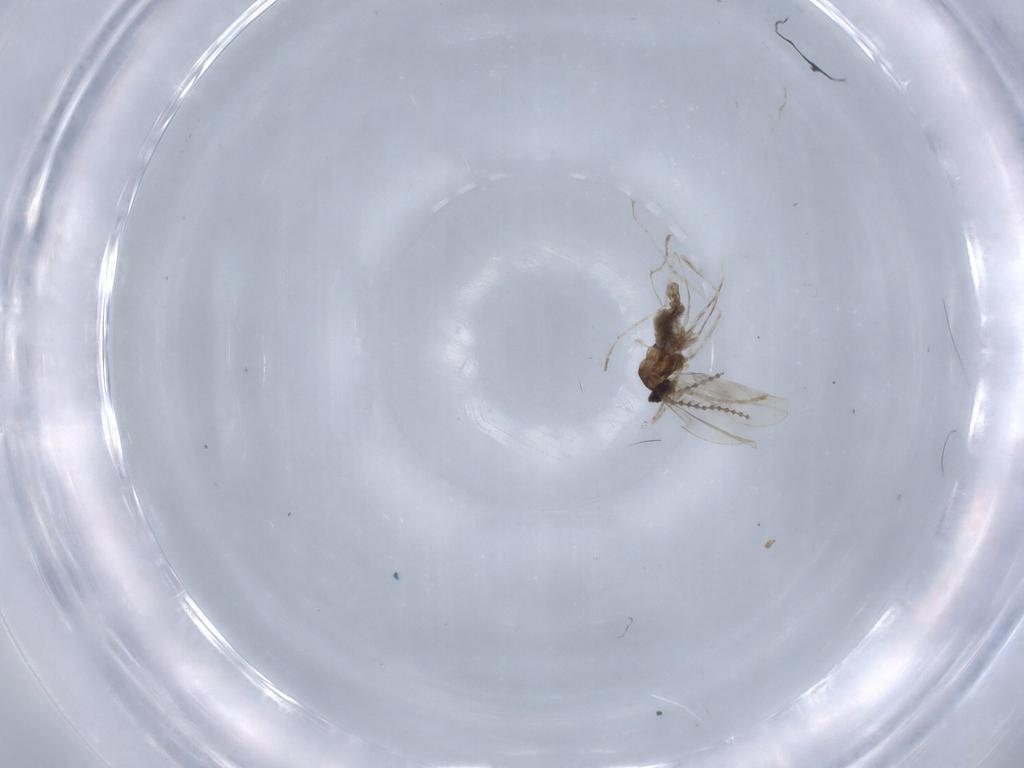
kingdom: Animalia
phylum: Arthropoda
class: Insecta
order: Diptera
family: Cecidomyiidae
